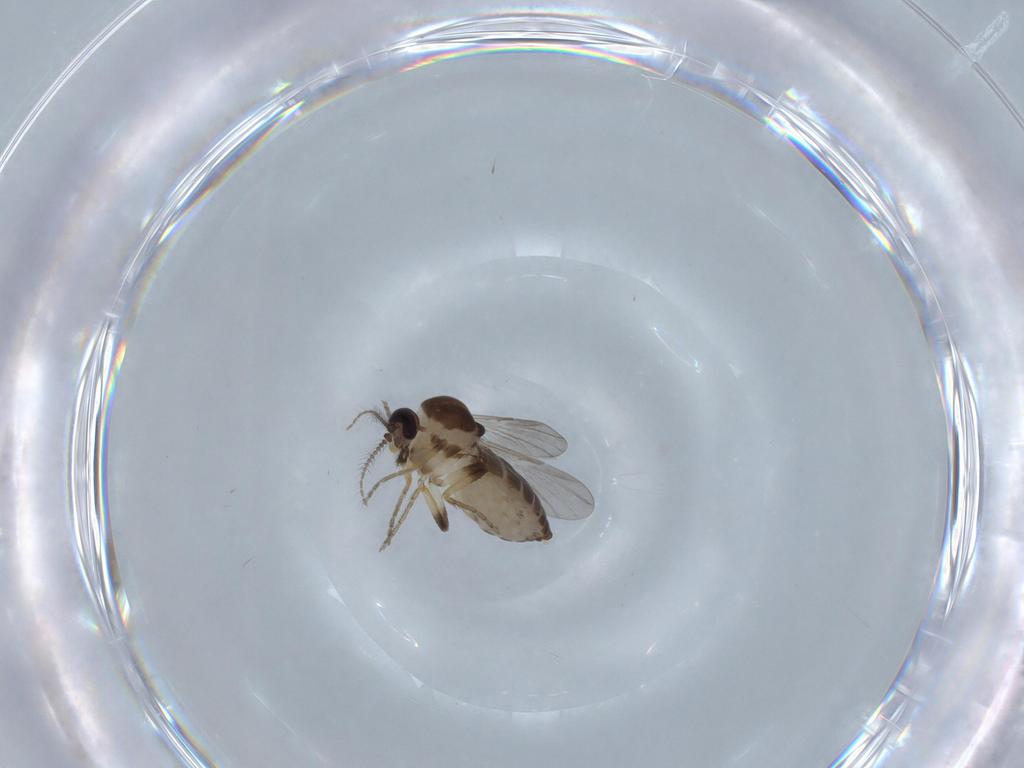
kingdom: Animalia
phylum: Arthropoda
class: Insecta
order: Diptera
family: Ceratopogonidae
